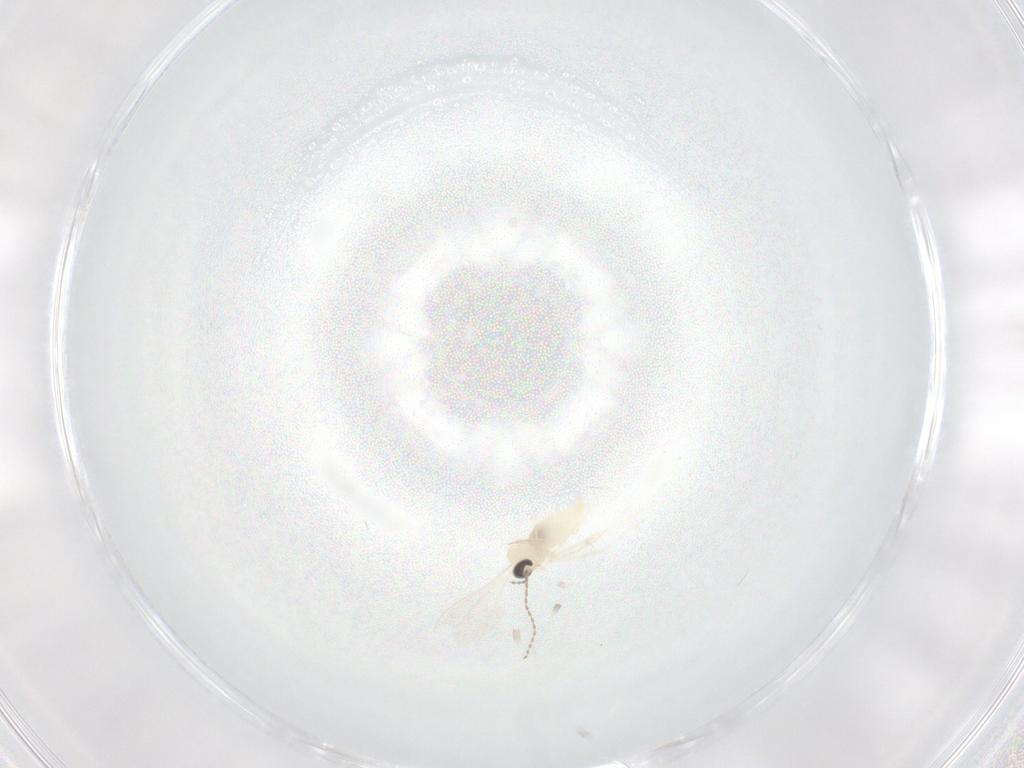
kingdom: Animalia
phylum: Arthropoda
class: Insecta
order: Diptera
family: Cecidomyiidae
